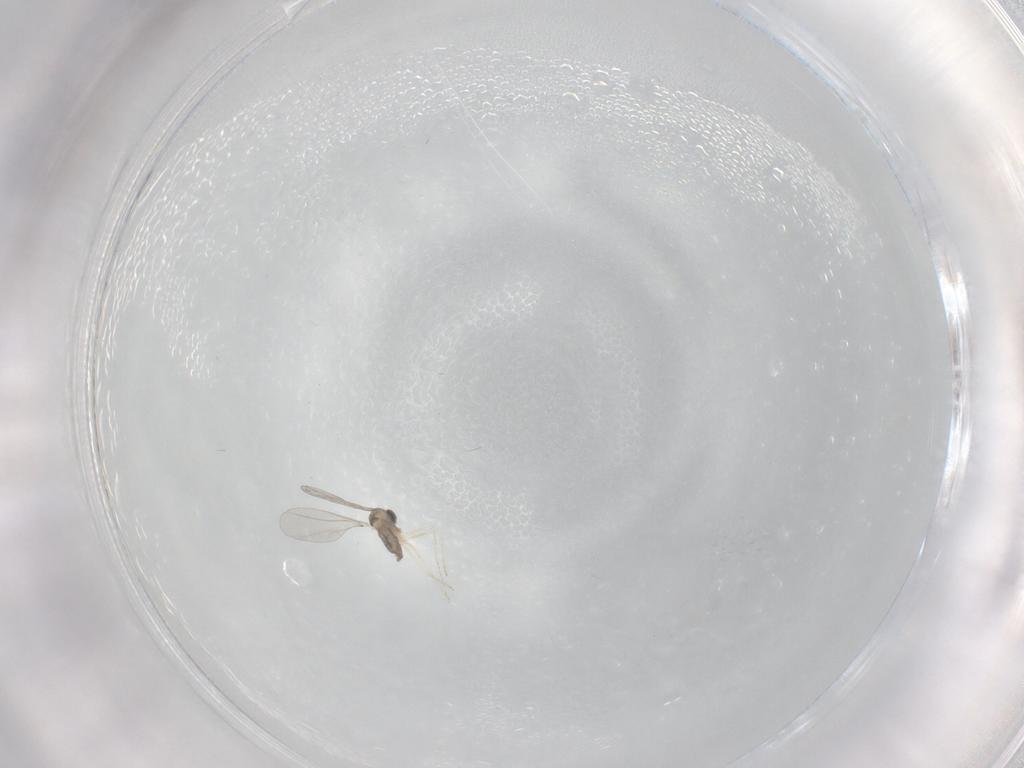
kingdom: Animalia
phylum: Arthropoda
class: Insecta
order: Diptera
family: Cecidomyiidae
